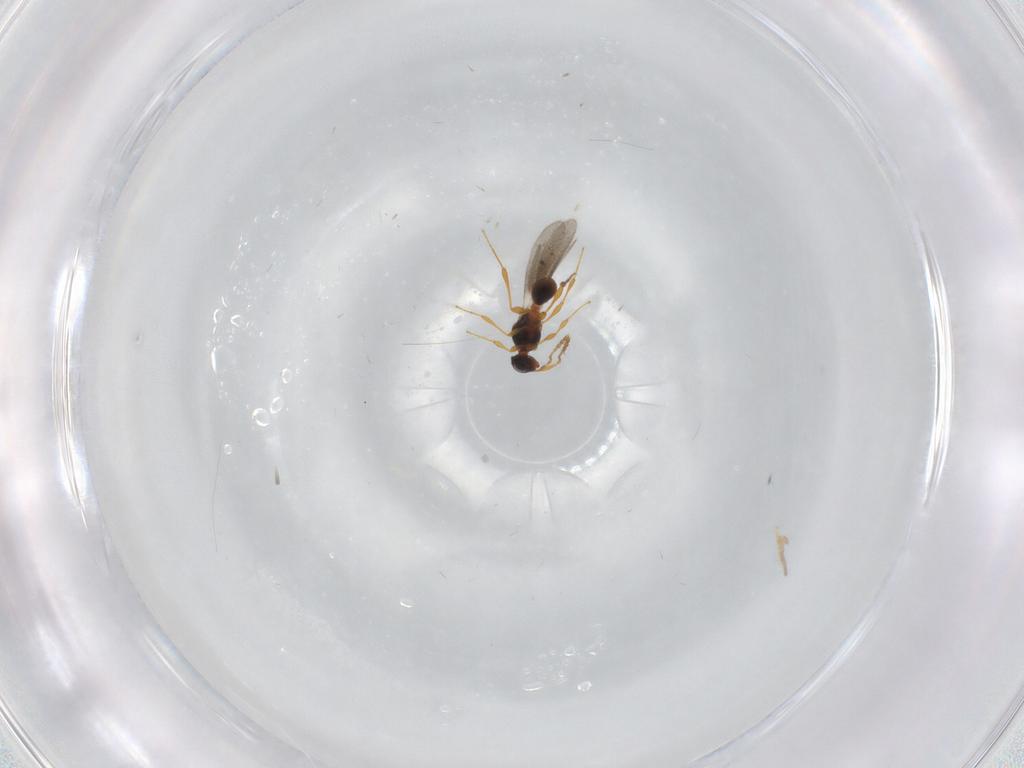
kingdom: Animalia
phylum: Arthropoda
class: Insecta
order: Hymenoptera
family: Platygastridae
